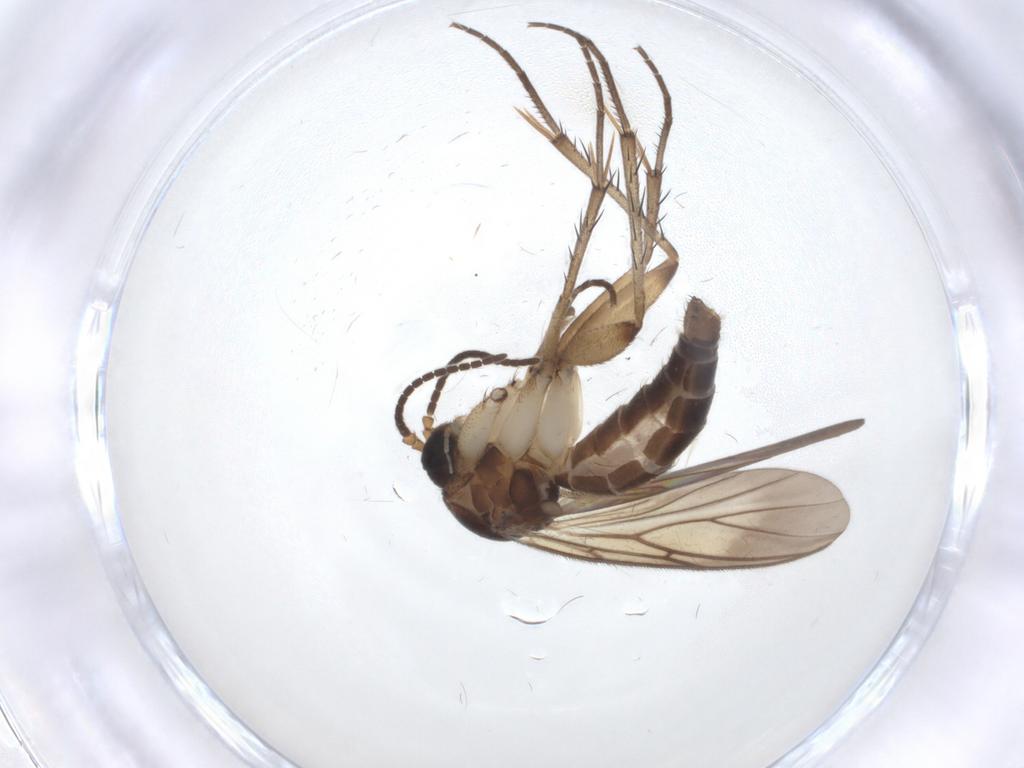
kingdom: Animalia
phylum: Arthropoda
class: Insecta
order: Diptera
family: Mycetophilidae
